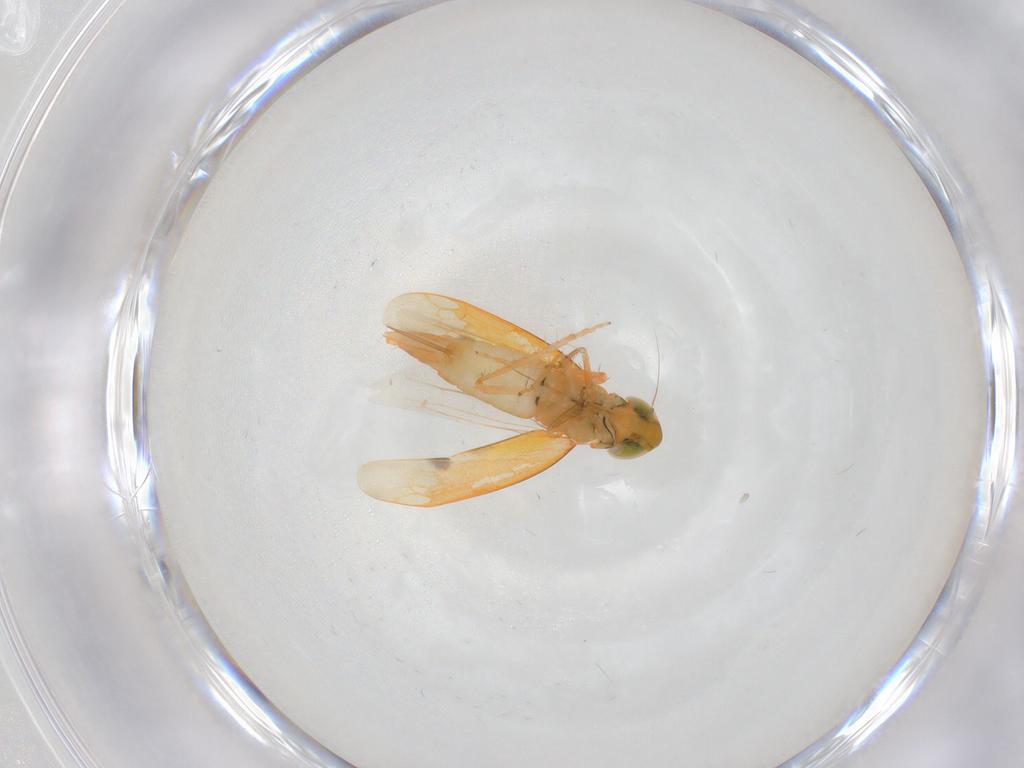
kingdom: Animalia
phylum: Arthropoda
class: Insecta
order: Hemiptera
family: Cicadellidae
